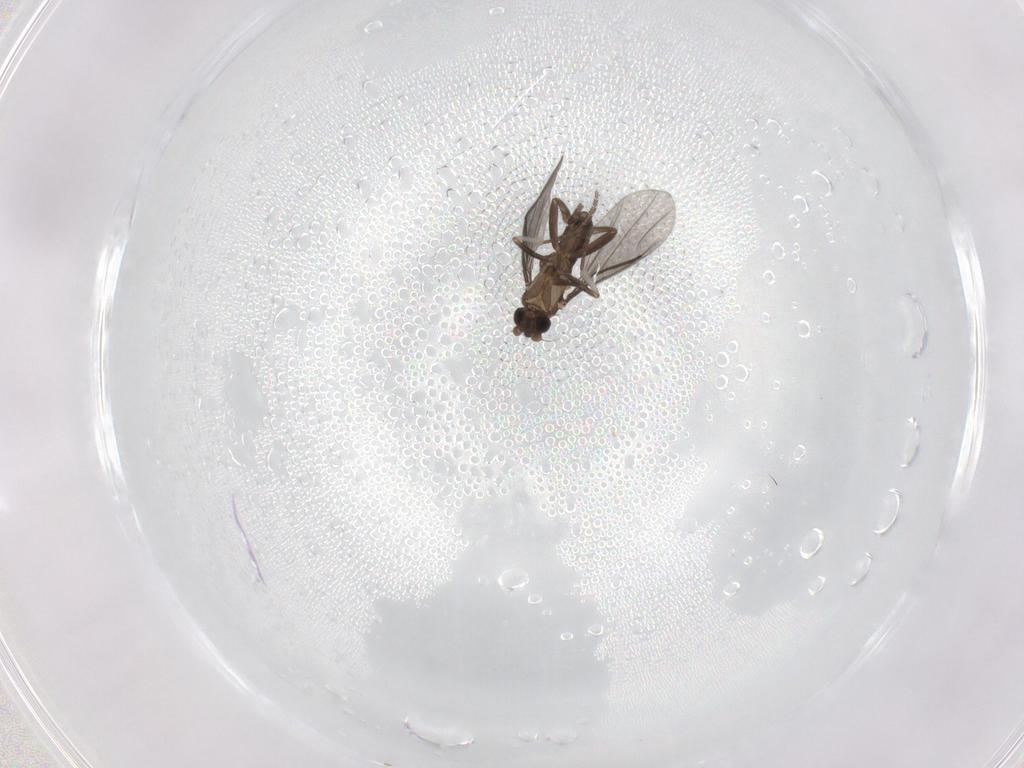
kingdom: Animalia
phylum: Arthropoda
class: Insecta
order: Diptera
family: Phoridae
